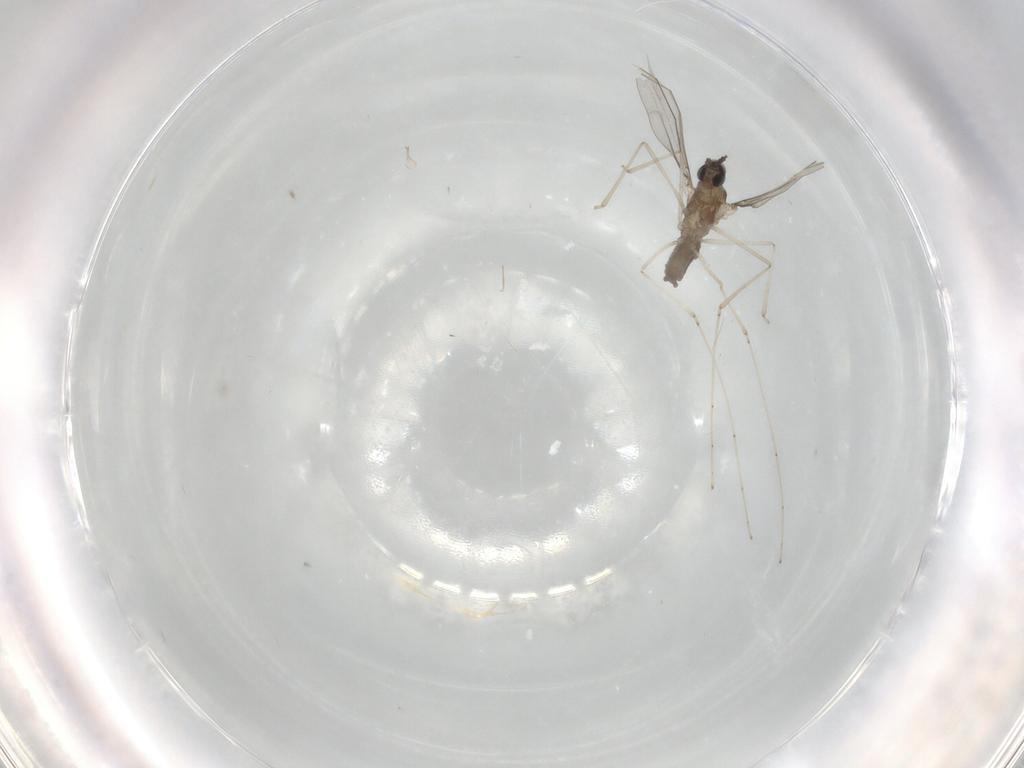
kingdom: Animalia
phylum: Arthropoda
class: Insecta
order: Diptera
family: Cecidomyiidae
